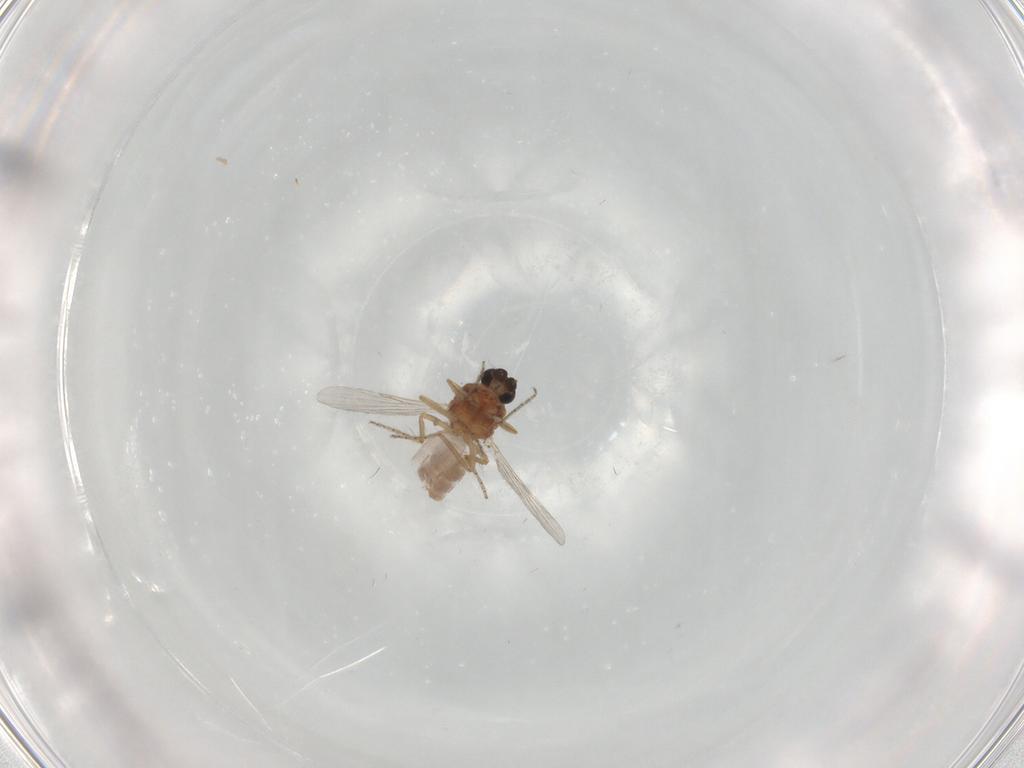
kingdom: Animalia
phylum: Arthropoda
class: Insecta
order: Diptera
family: Ceratopogonidae
